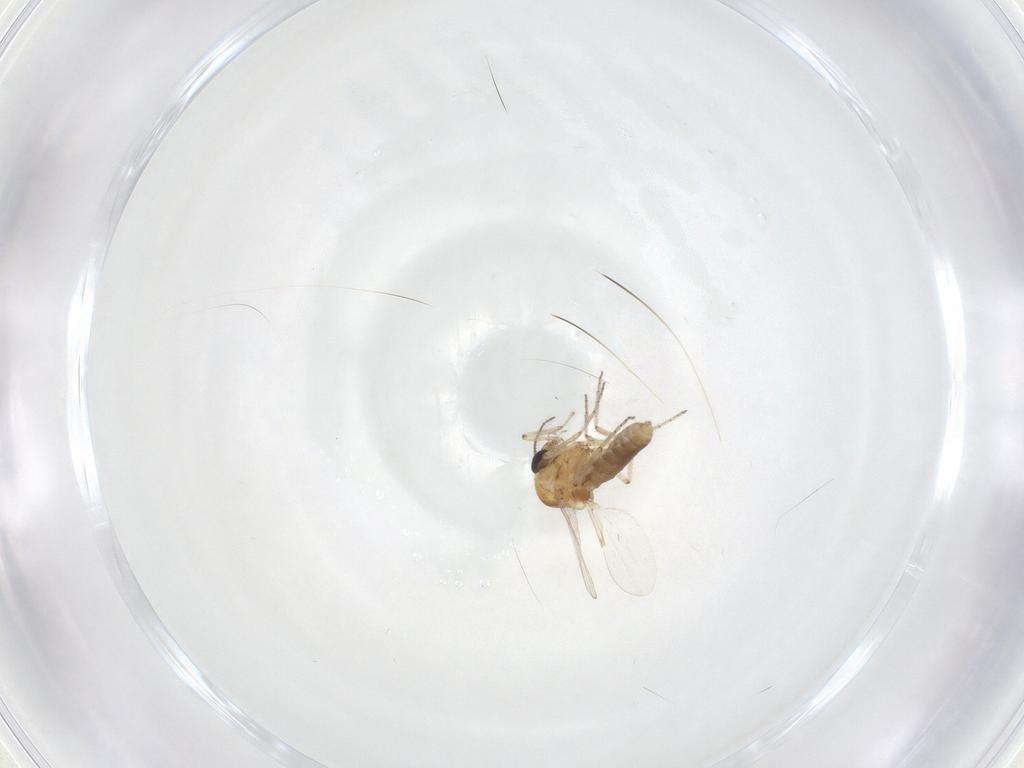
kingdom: Animalia
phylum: Arthropoda
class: Insecta
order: Diptera
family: Ceratopogonidae
